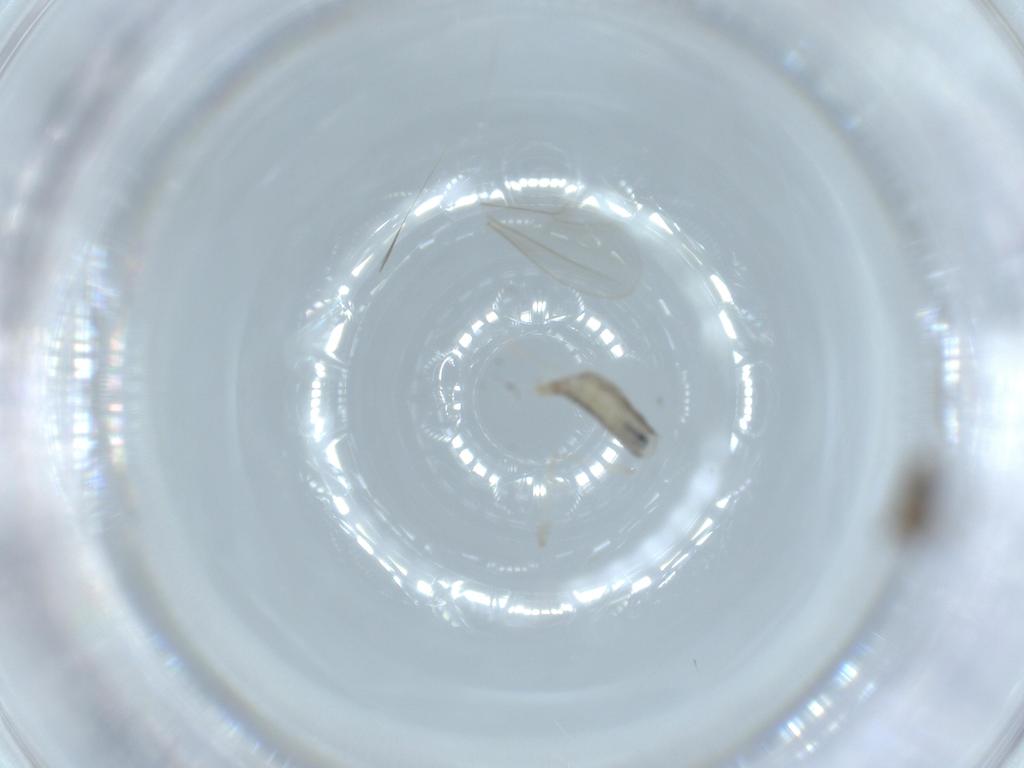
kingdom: Animalia
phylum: Arthropoda
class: Insecta
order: Diptera
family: Cecidomyiidae
